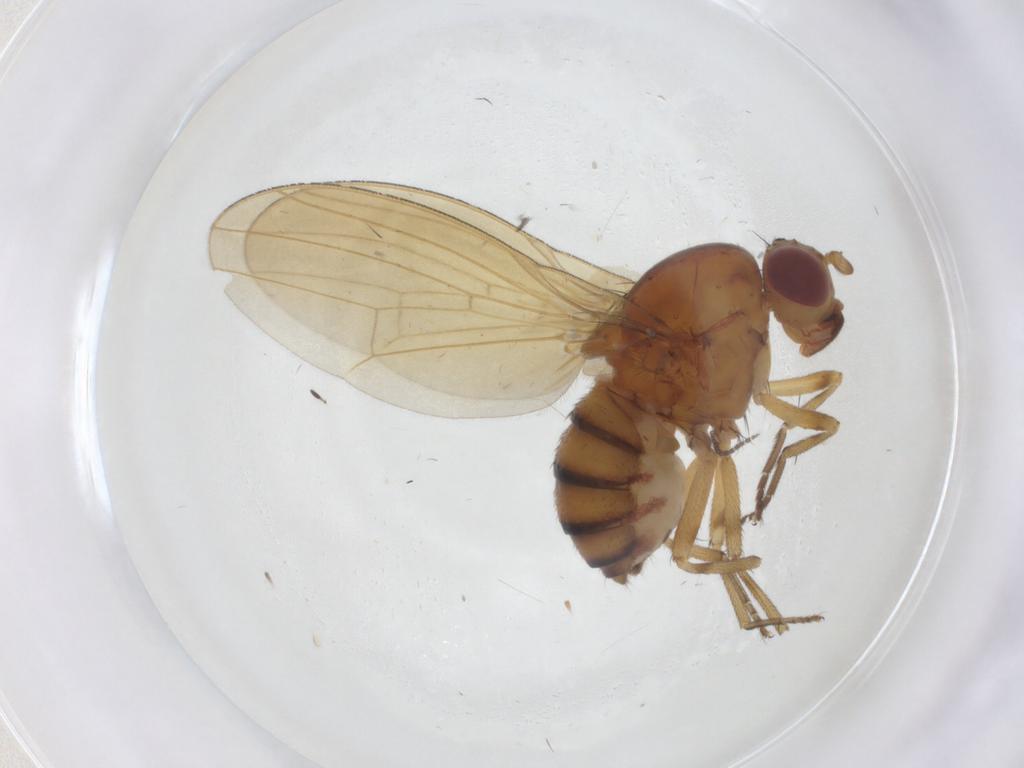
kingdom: Animalia
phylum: Arthropoda
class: Insecta
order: Diptera
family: Lauxaniidae
